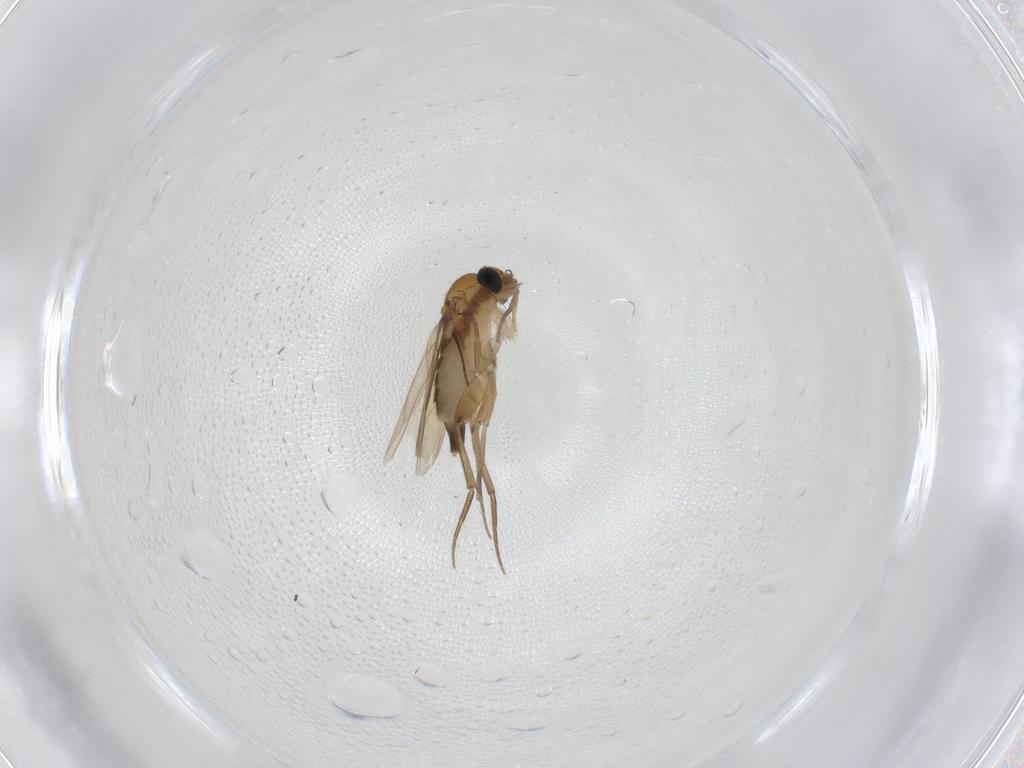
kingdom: Animalia
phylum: Arthropoda
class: Insecta
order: Diptera
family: Phoridae
